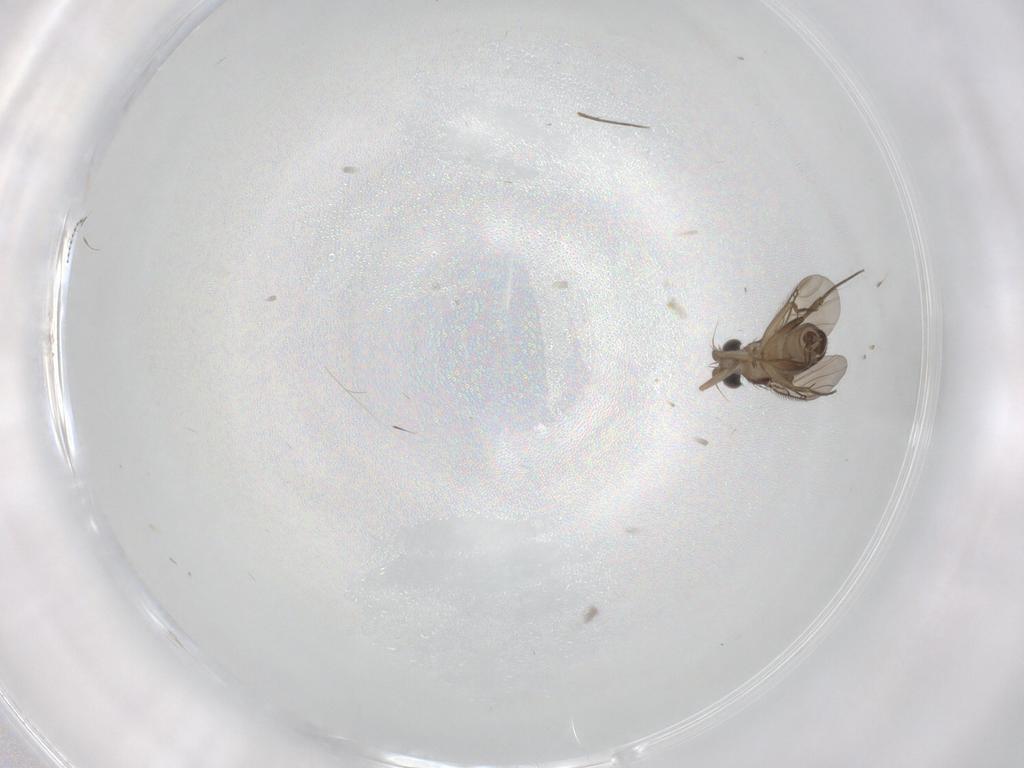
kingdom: Animalia
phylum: Arthropoda
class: Insecta
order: Diptera
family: Phoridae
